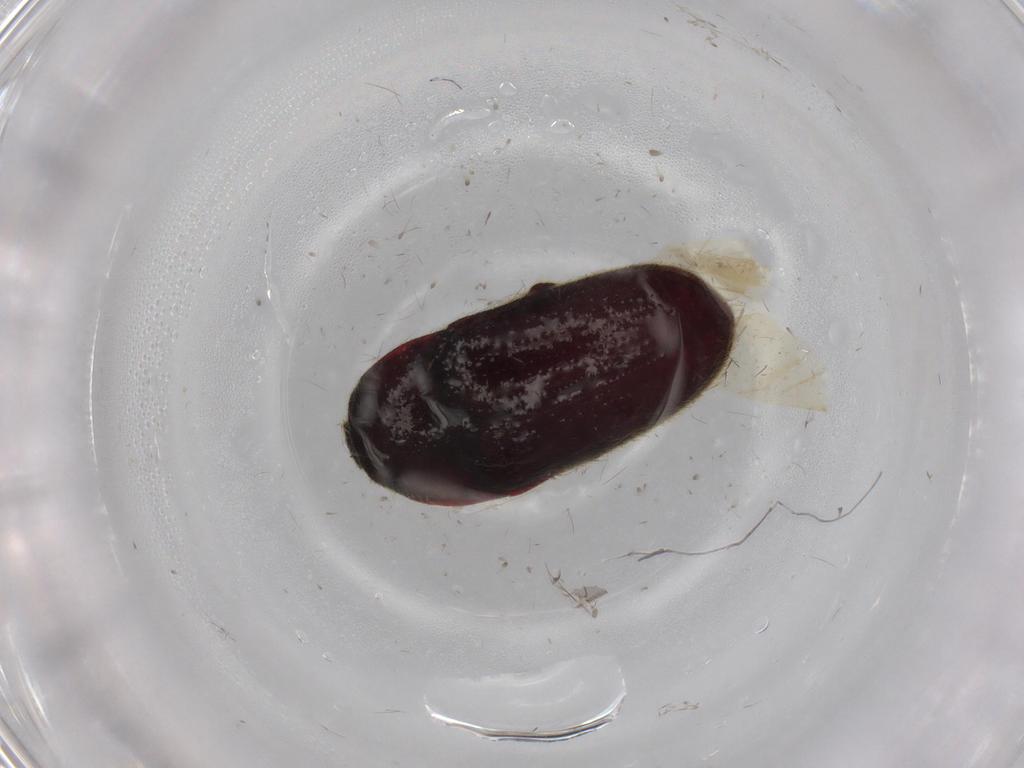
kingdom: Animalia
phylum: Arthropoda
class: Insecta
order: Coleoptera
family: Throscidae
